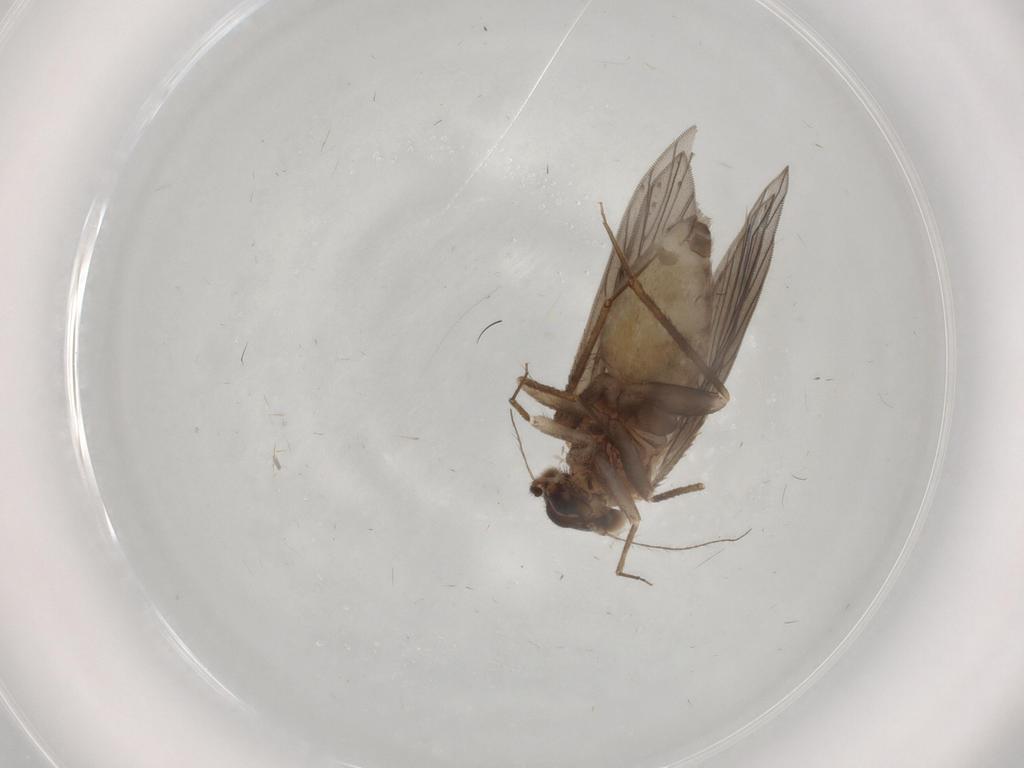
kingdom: Animalia
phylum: Arthropoda
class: Insecta
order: Psocodea
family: Lepidopsocidae
